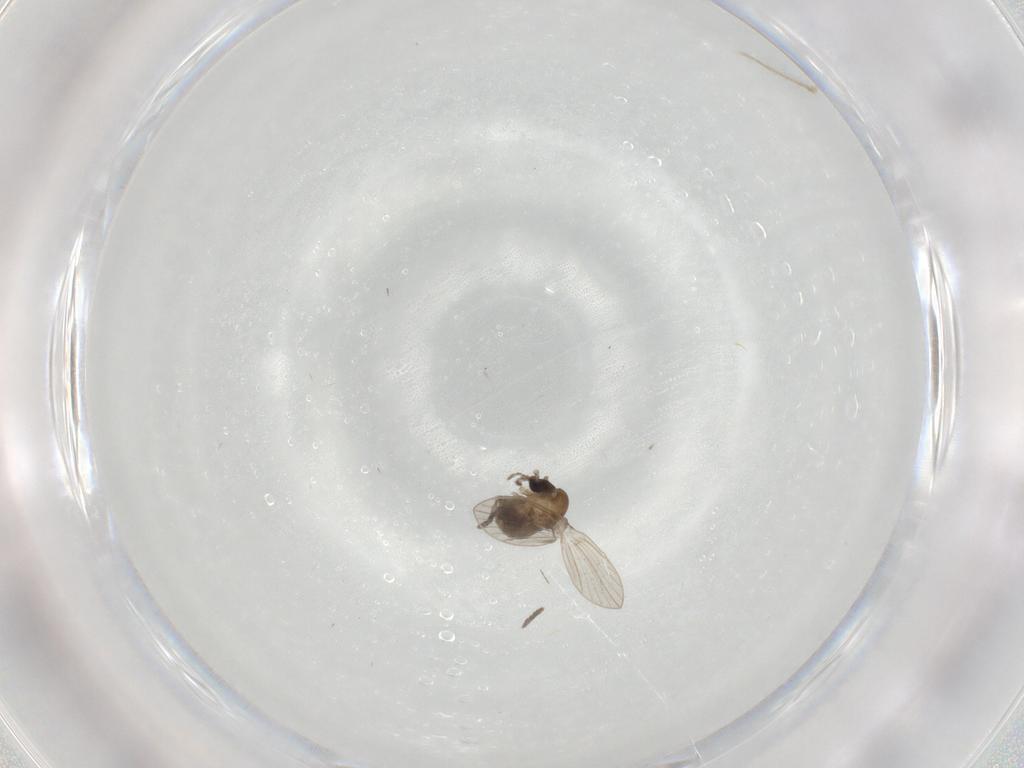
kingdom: Animalia
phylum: Arthropoda
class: Insecta
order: Diptera
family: Psychodidae
